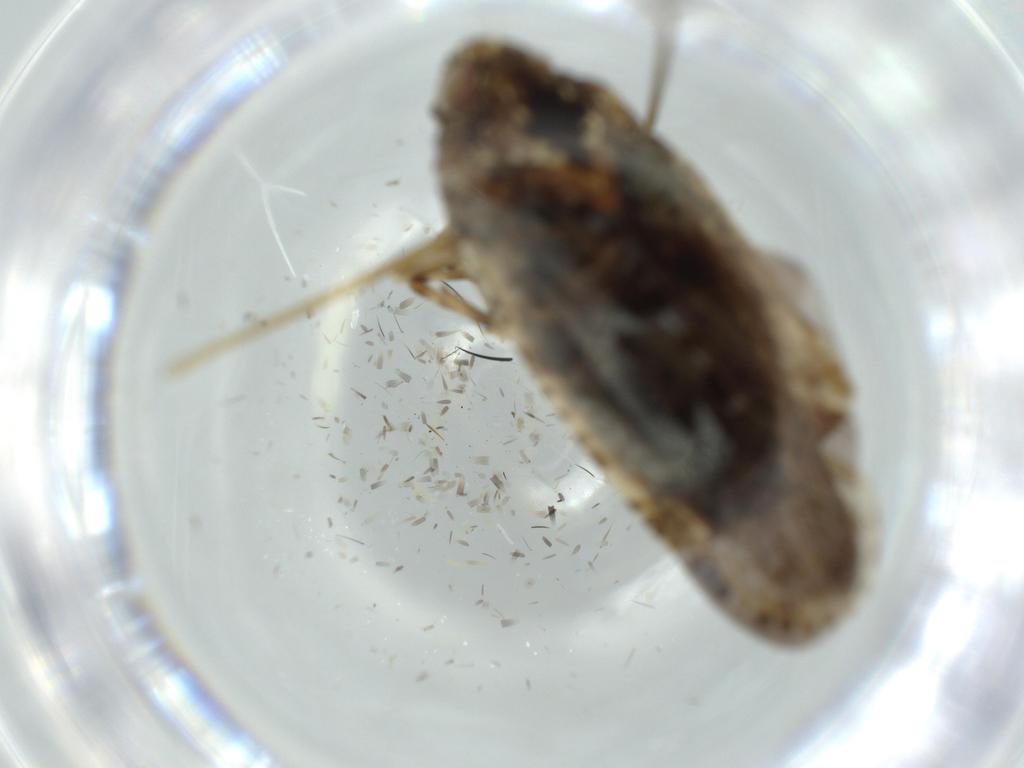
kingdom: Animalia
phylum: Arthropoda
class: Insecta
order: Hemiptera
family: Achilidae
